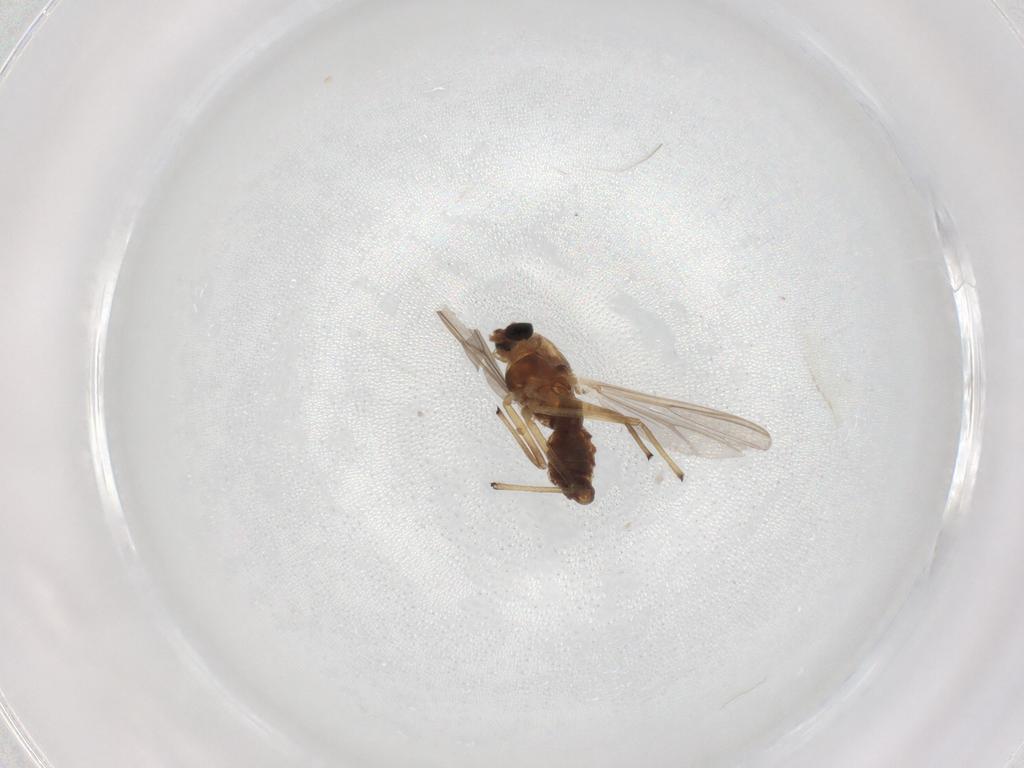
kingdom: Animalia
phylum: Arthropoda
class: Insecta
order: Diptera
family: Chironomidae
